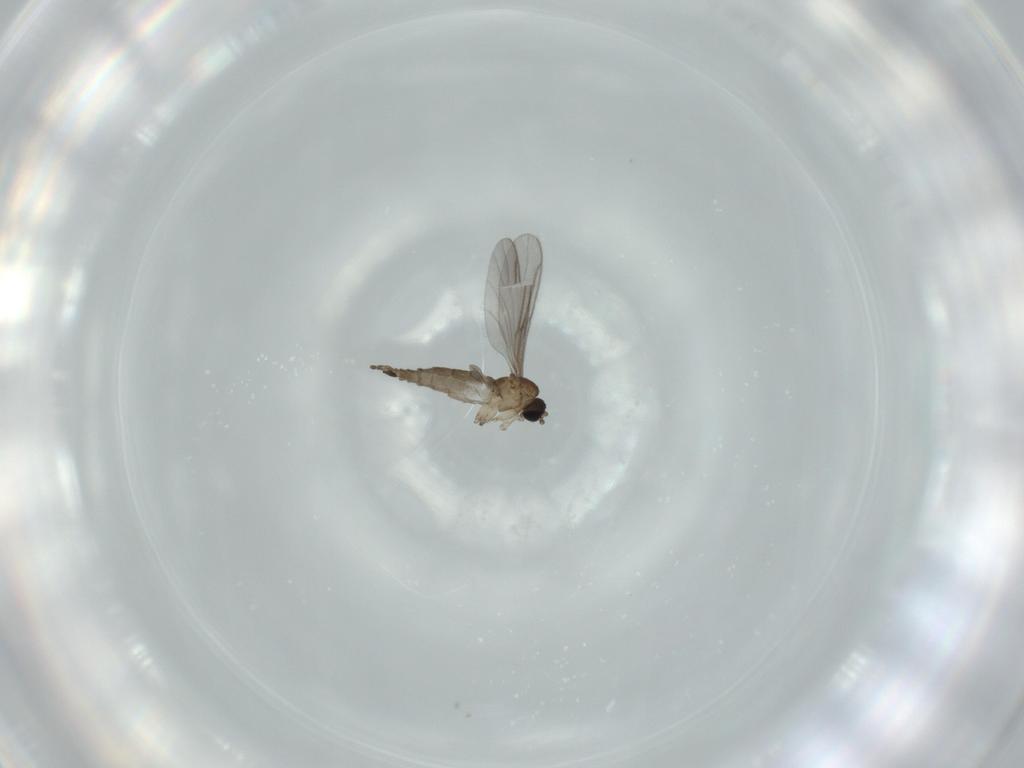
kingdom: Animalia
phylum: Arthropoda
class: Insecta
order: Diptera
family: Sciaridae
